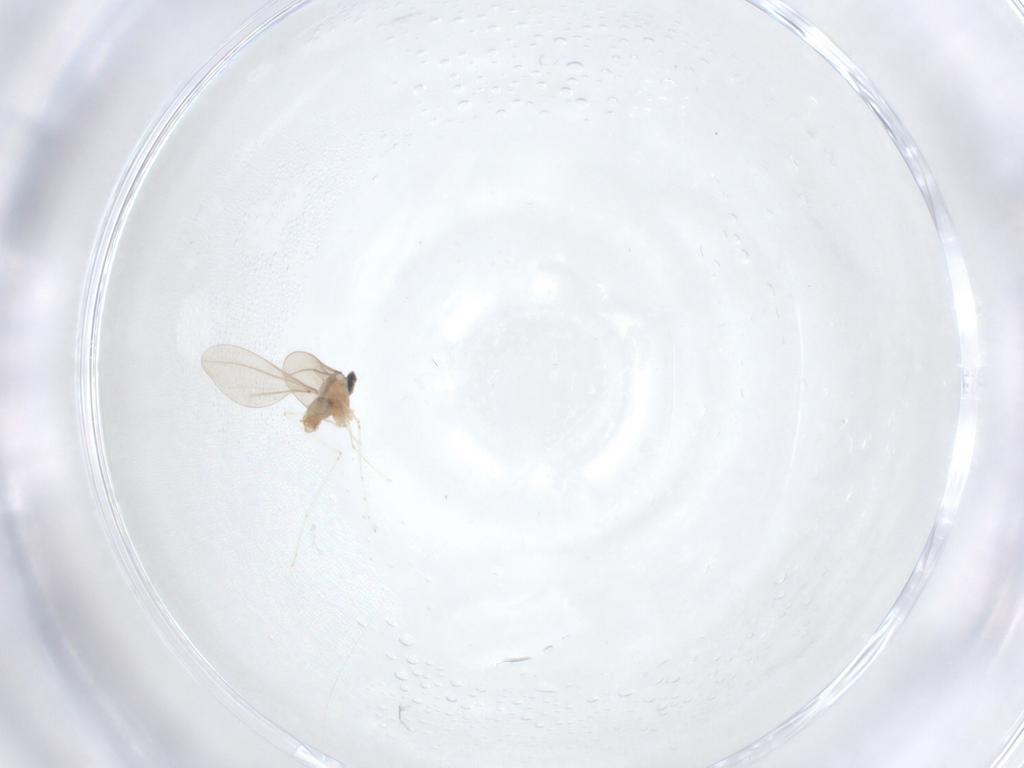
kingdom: Animalia
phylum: Arthropoda
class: Insecta
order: Diptera
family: Cecidomyiidae
